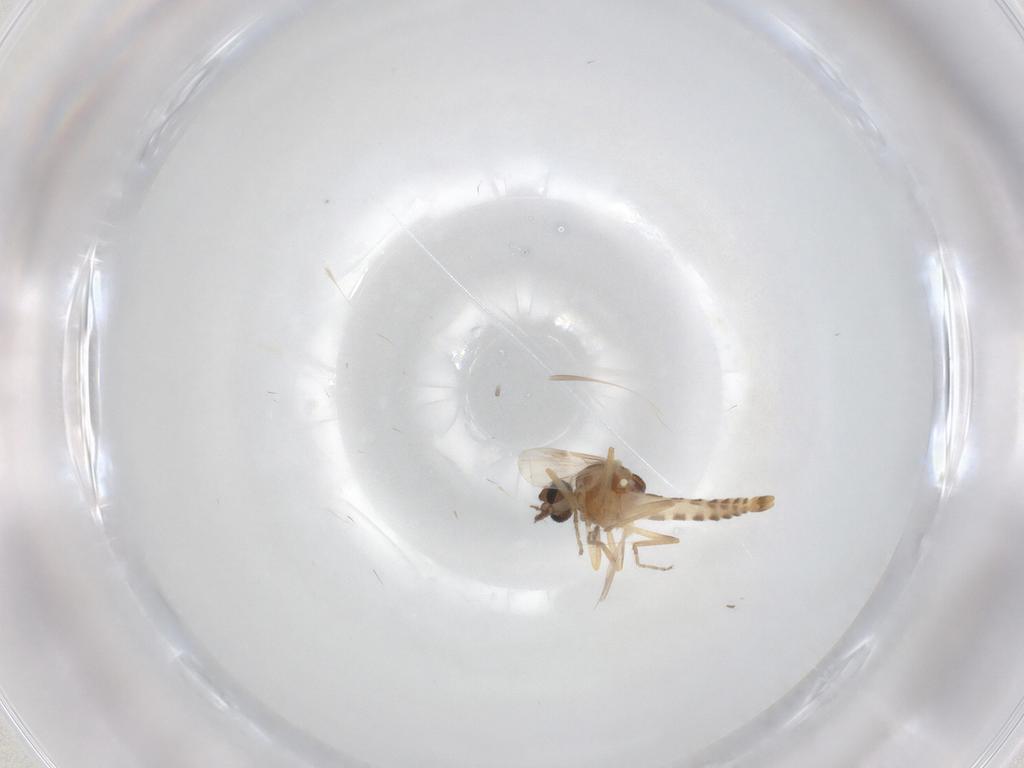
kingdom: Animalia
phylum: Arthropoda
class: Insecta
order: Diptera
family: Ceratopogonidae
